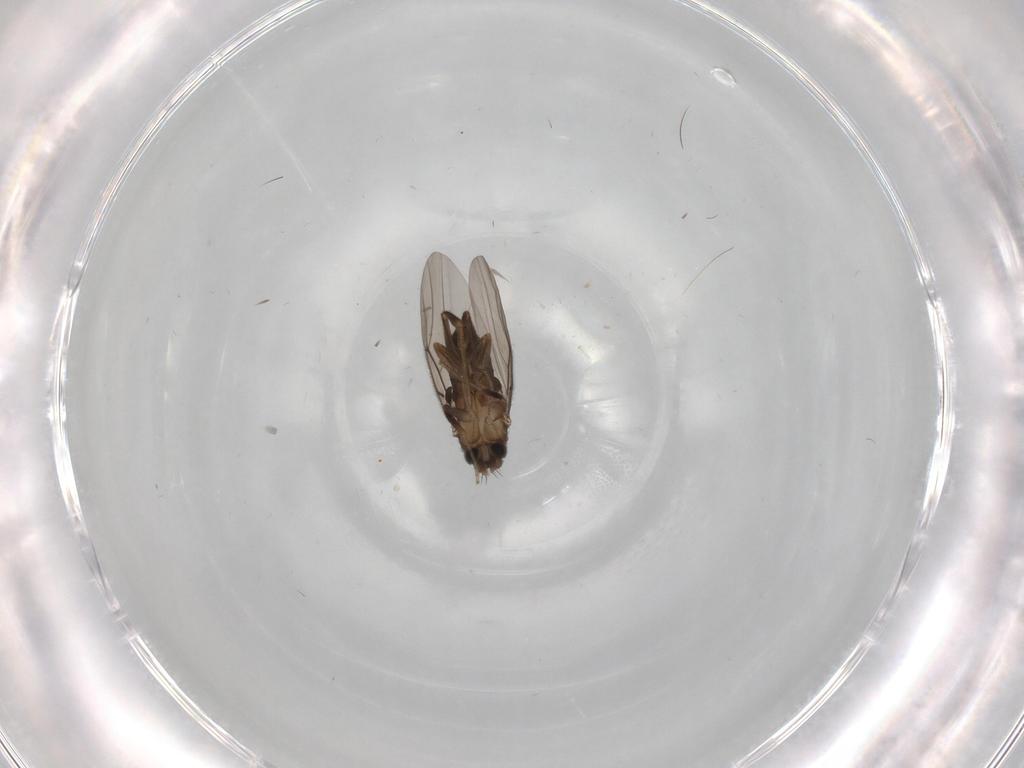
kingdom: Animalia
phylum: Arthropoda
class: Insecta
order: Diptera
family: Phoridae
